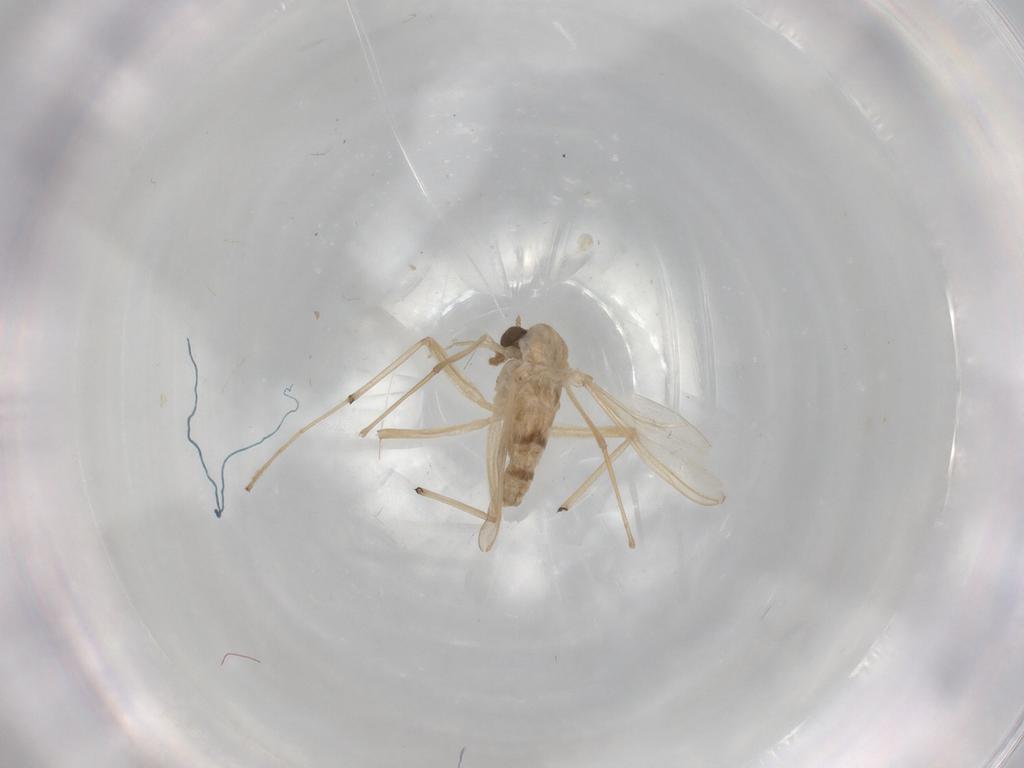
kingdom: Animalia
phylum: Arthropoda
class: Insecta
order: Diptera
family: Chironomidae
